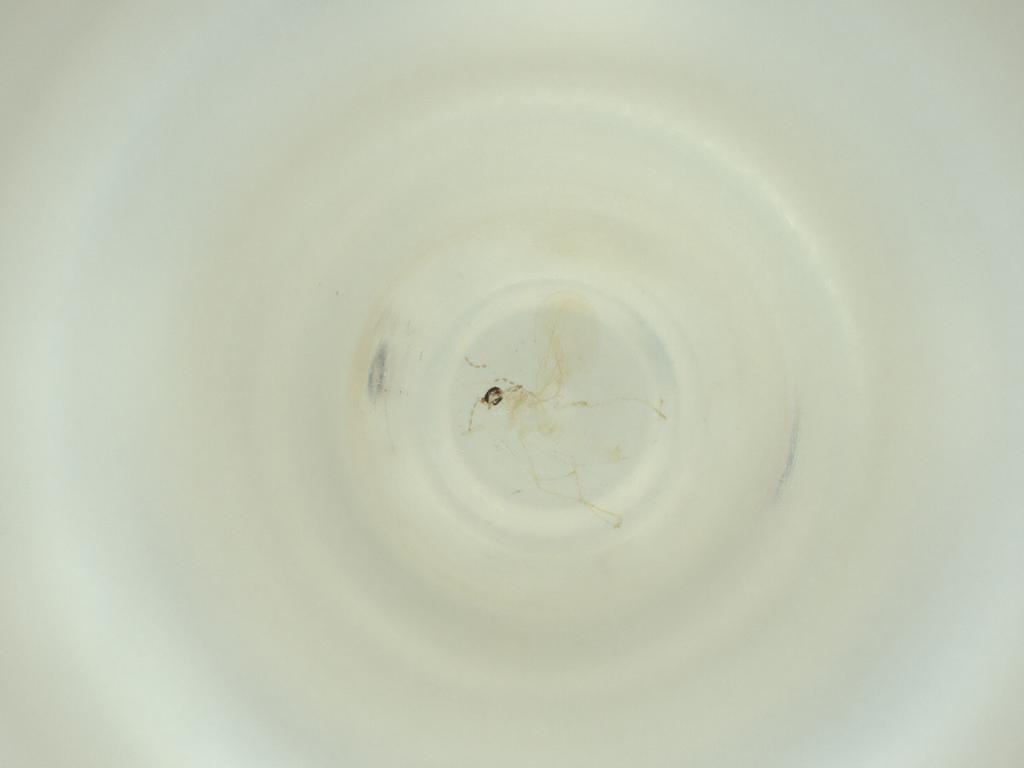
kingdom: Animalia
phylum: Arthropoda
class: Insecta
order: Diptera
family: Cecidomyiidae
